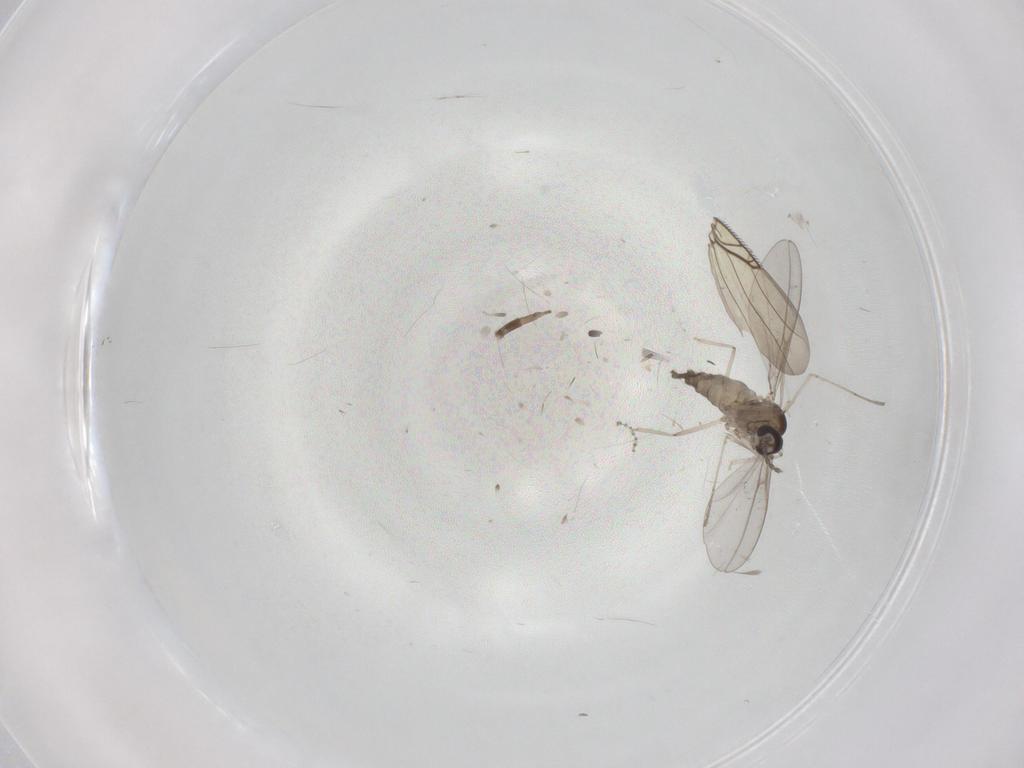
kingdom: Animalia
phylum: Arthropoda
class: Insecta
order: Diptera
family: Cecidomyiidae
